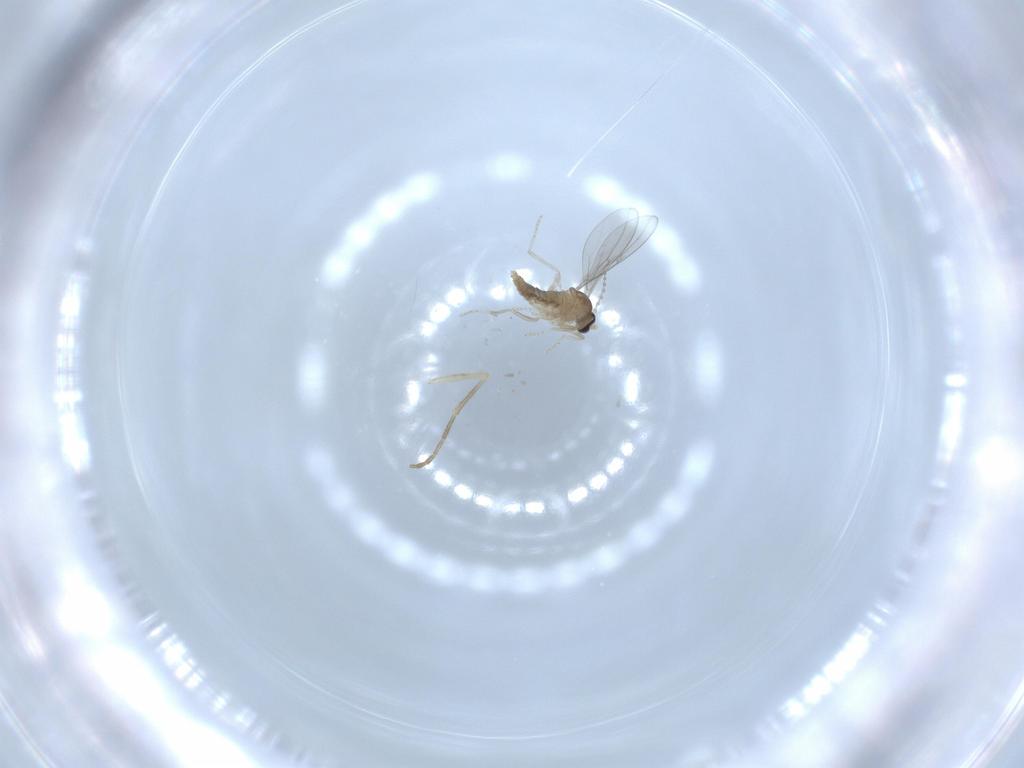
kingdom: Animalia
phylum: Arthropoda
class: Insecta
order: Diptera
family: Cecidomyiidae
